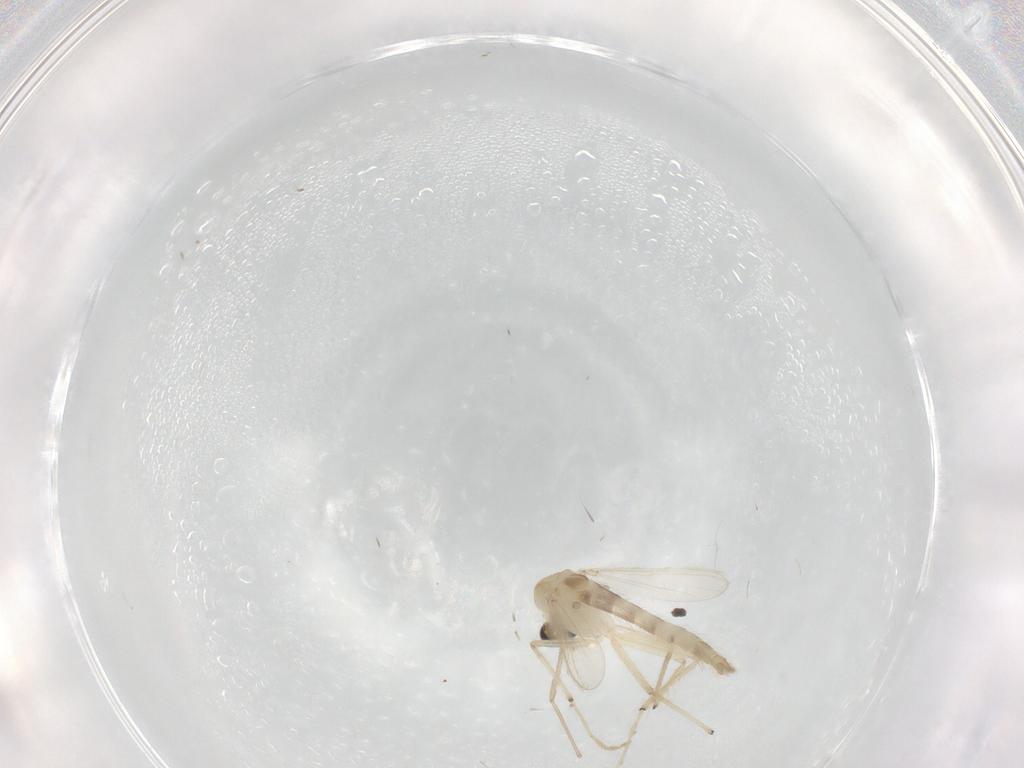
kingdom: Animalia
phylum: Arthropoda
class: Insecta
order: Diptera
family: Chironomidae
